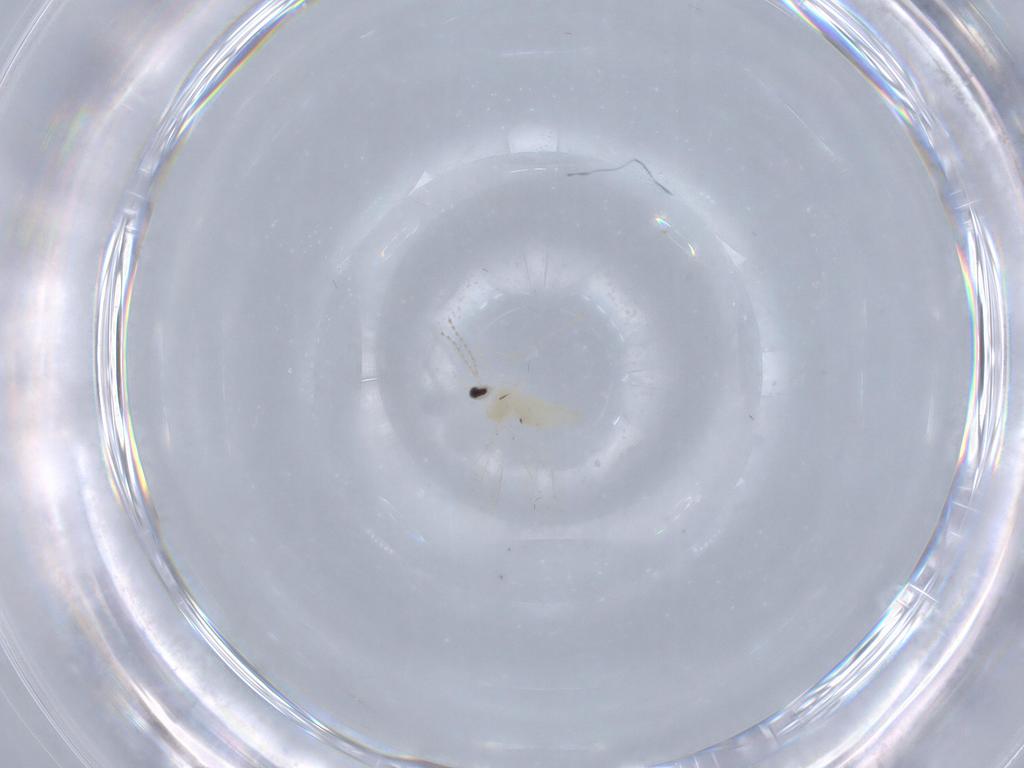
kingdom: Animalia
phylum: Arthropoda
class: Insecta
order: Diptera
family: Cecidomyiidae
